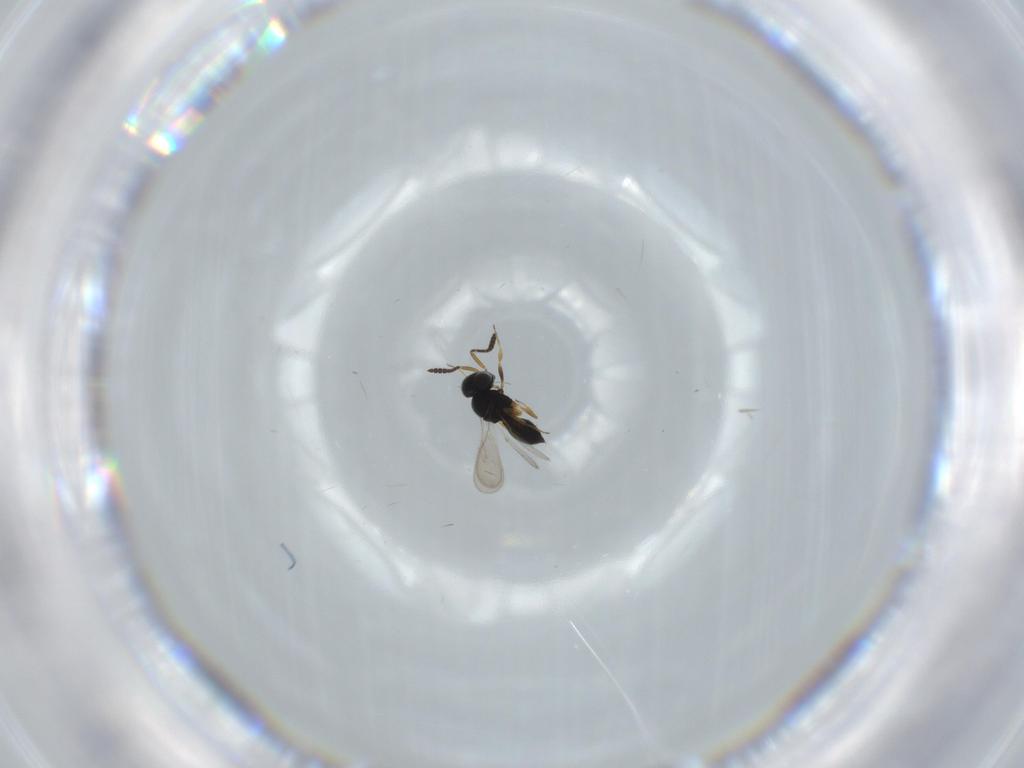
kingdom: Animalia
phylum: Arthropoda
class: Insecta
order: Hymenoptera
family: Scelionidae
